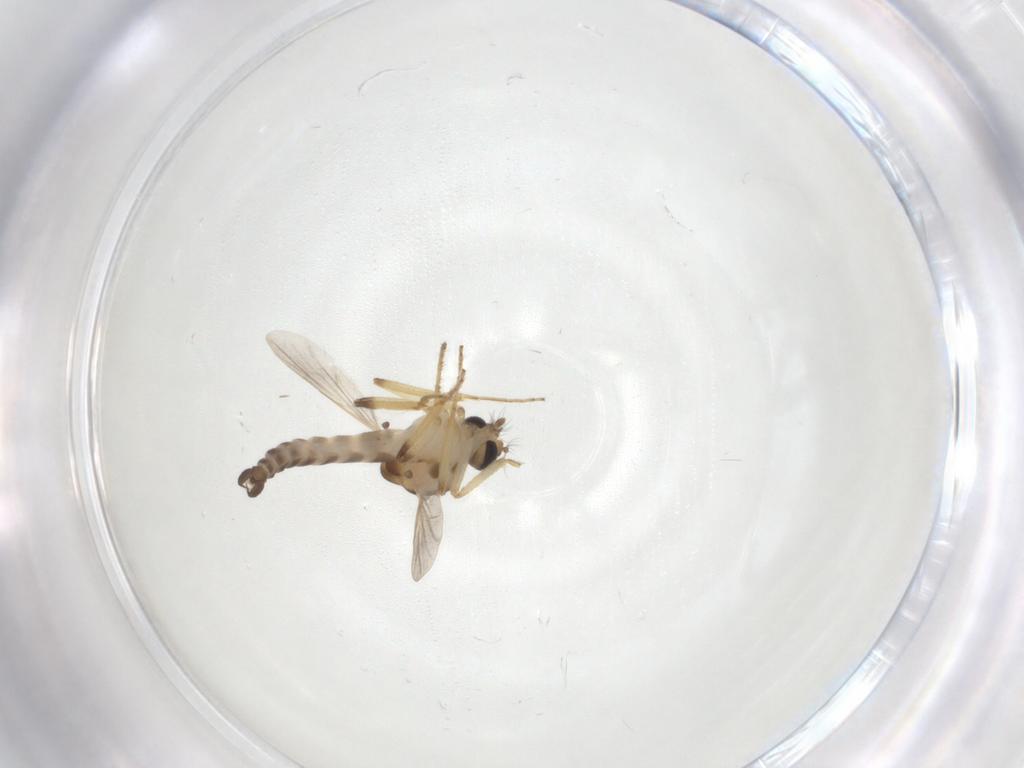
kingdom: Animalia
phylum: Arthropoda
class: Insecta
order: Diptera
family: Ceratopogonidae
